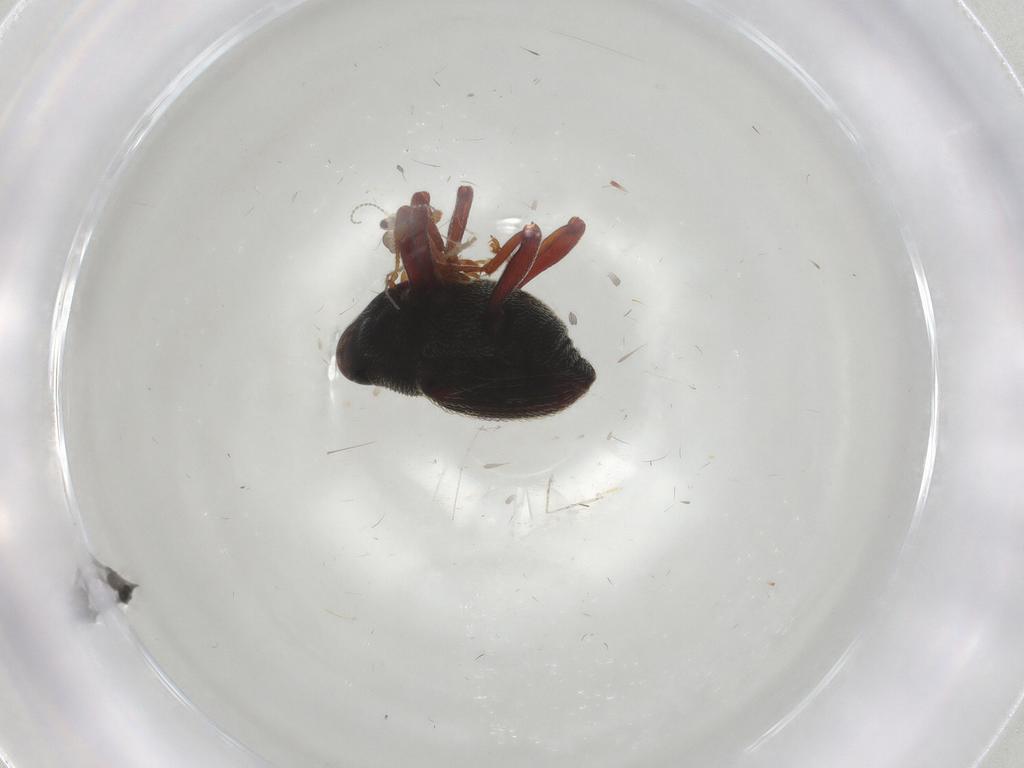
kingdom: Animalia
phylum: Arthropoda
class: Insecta
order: Coleoptera
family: Curculionidae
